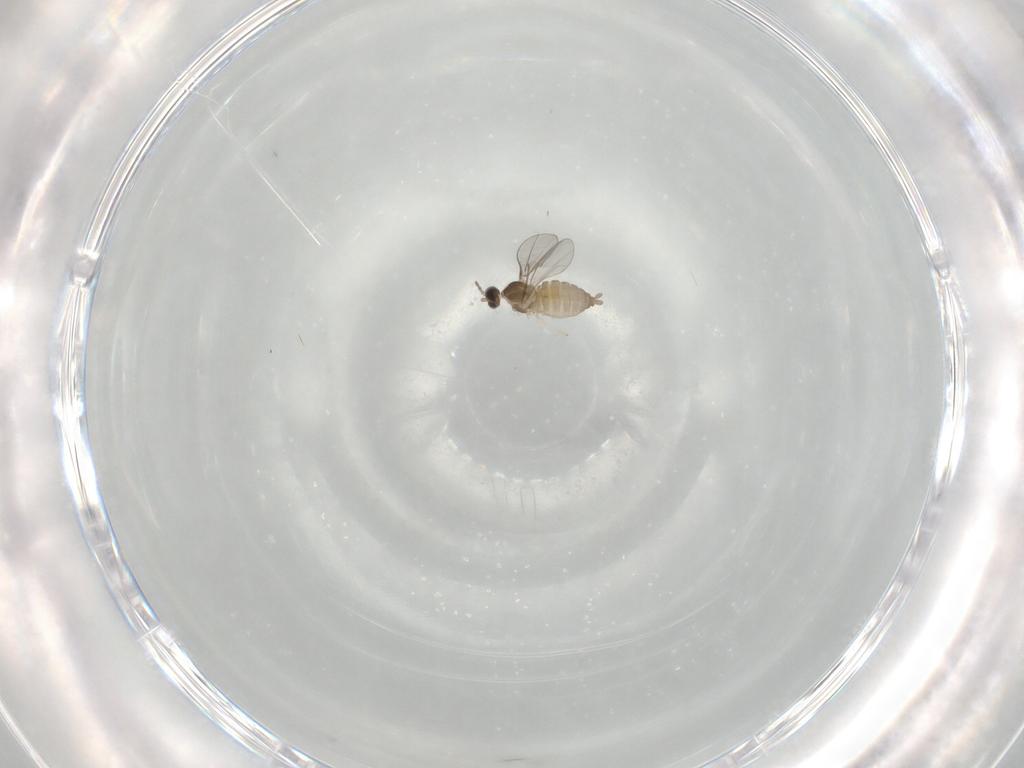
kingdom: Animalia
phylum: Arthropoda
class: Insecta
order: Diptera
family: Cecidomyiidae
